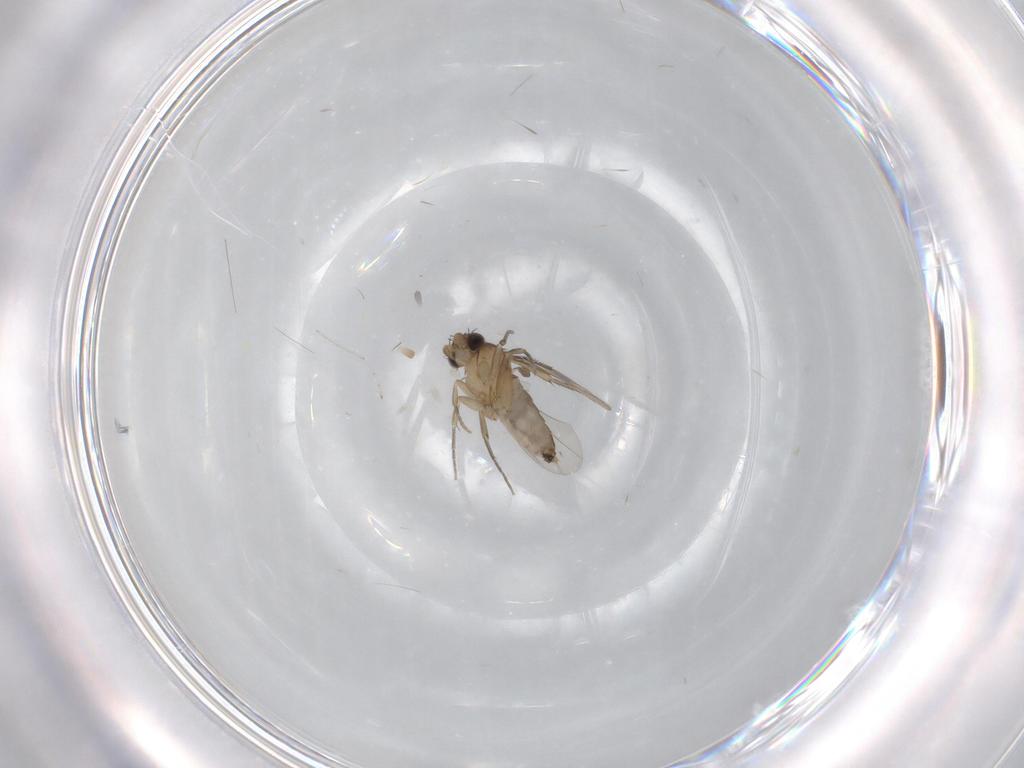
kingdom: Animalia
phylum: Arthropoda
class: Insecta
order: Diptera
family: Phoridae
